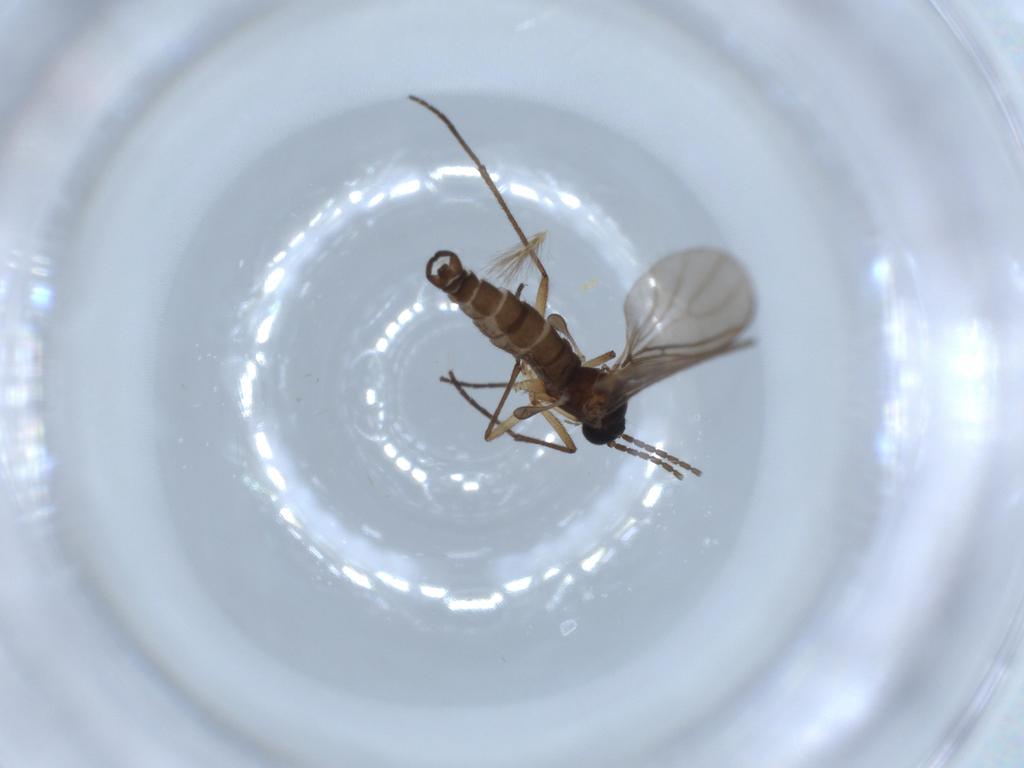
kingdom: Animalia
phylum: Arthropoda
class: Insecta
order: Diptera
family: Sciaridae
